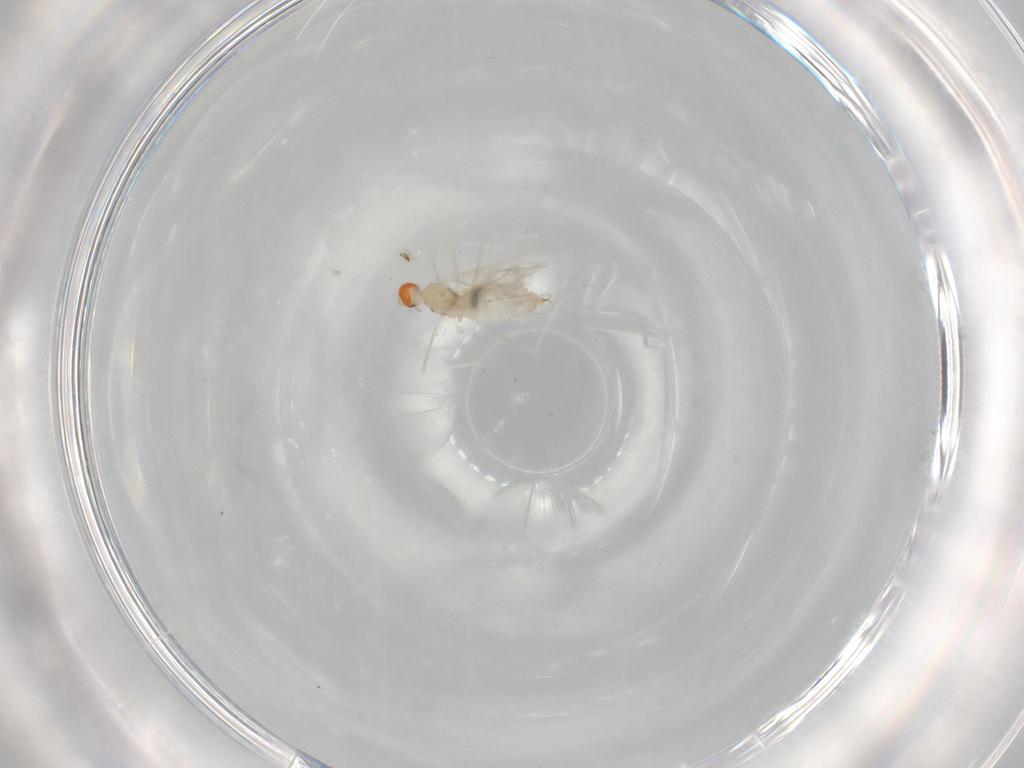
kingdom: Animalia
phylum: Arthropoda
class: Insecta
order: Diptera
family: Cecidomyiidae
